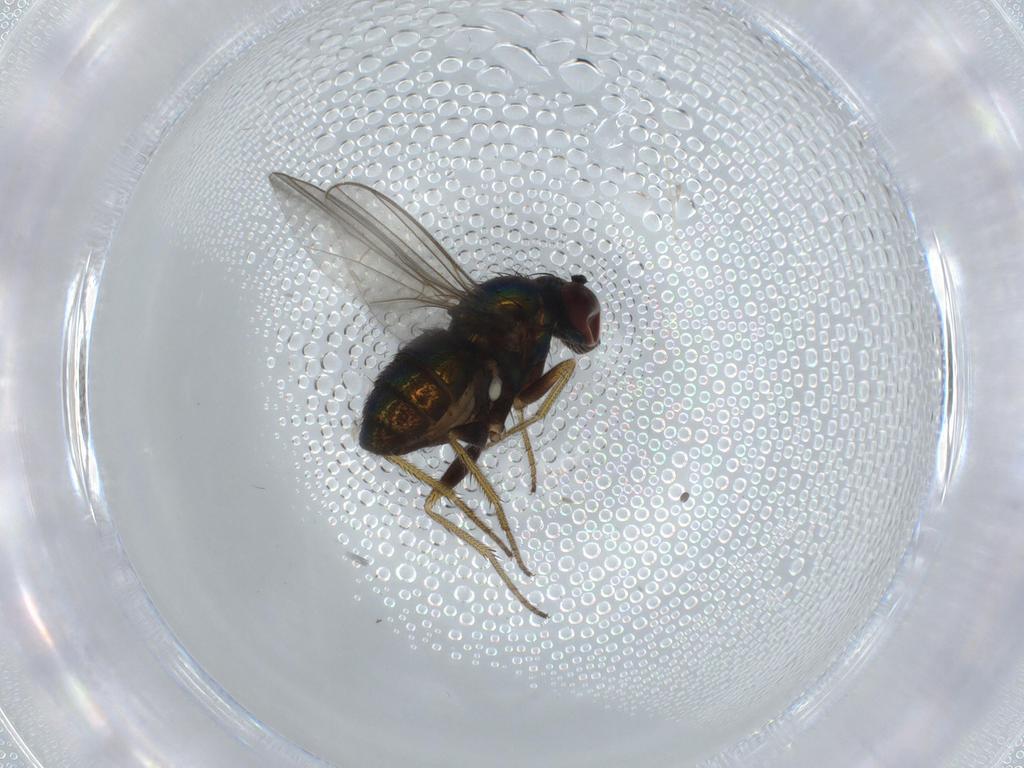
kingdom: Animalia
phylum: Arthropoda
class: Insecta
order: Diptera
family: Dolichopodidae
